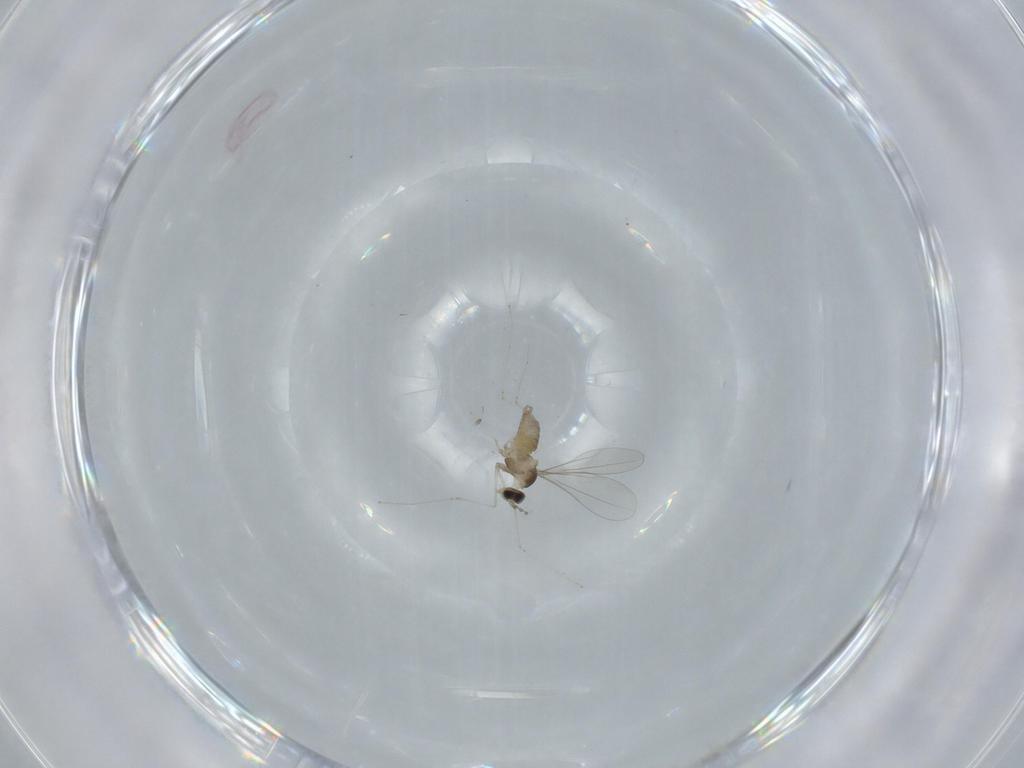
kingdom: Animalia
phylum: Arthropoda
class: Insecta
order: Diptera
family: Cecidomyiidae
